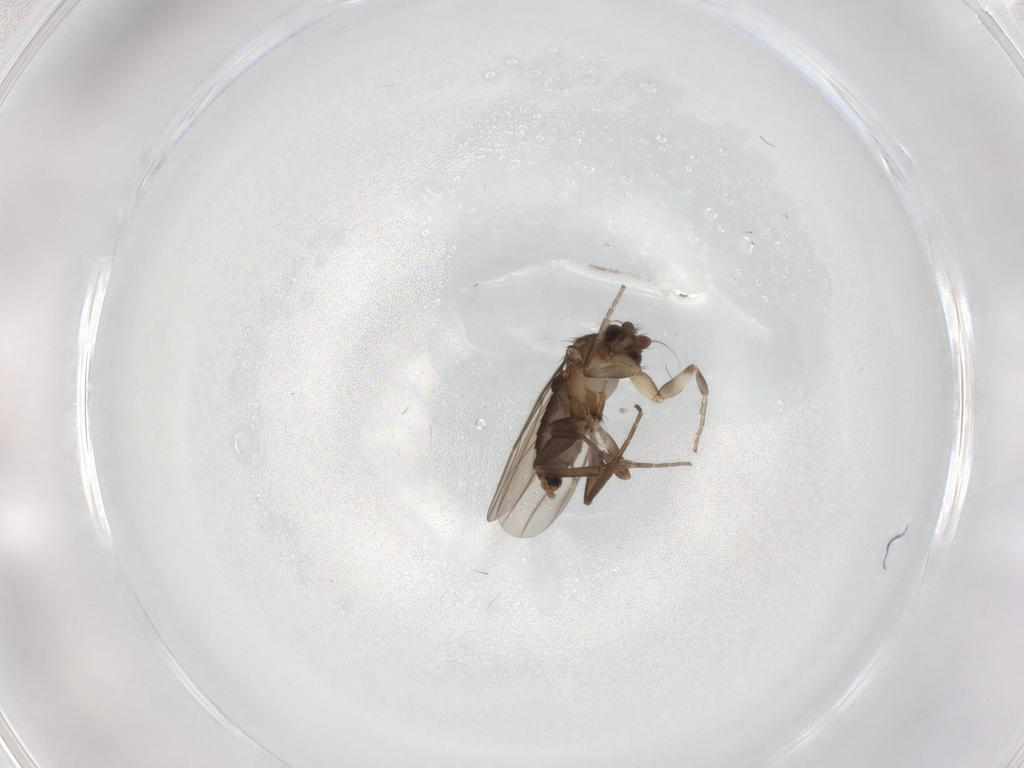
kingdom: Animalia
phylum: Arthropoda
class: Insecta
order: Diptera
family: Phoridae
